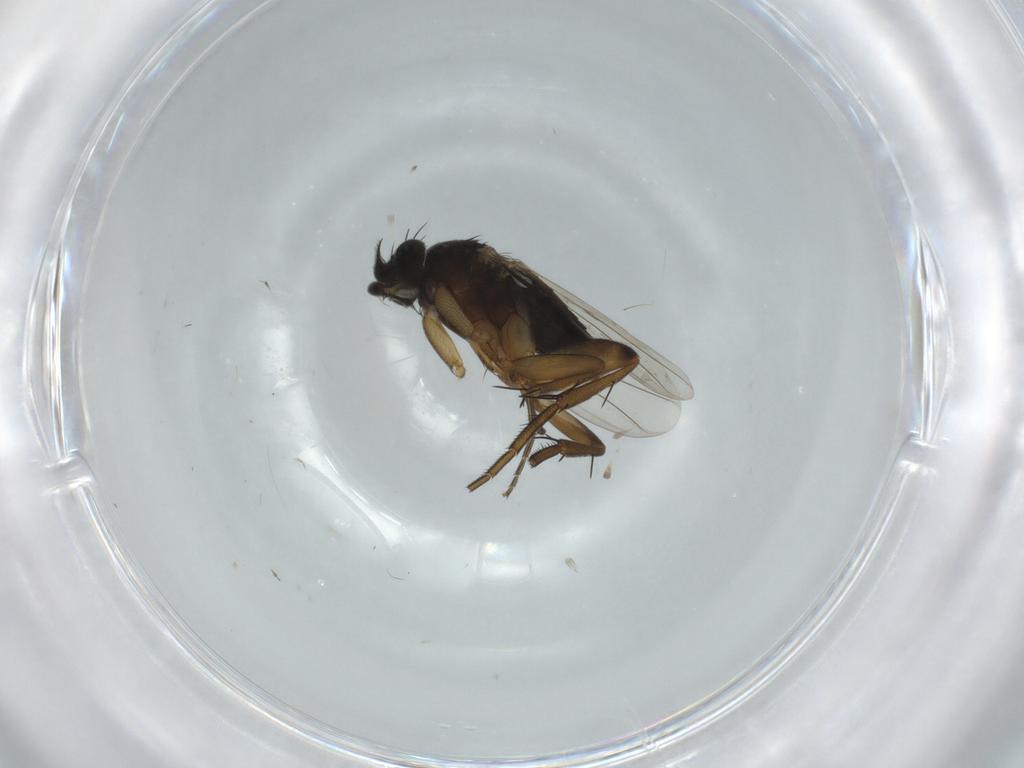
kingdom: Animalia
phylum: Arthropoda
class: Insecta
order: Diptera
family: Phoridae
